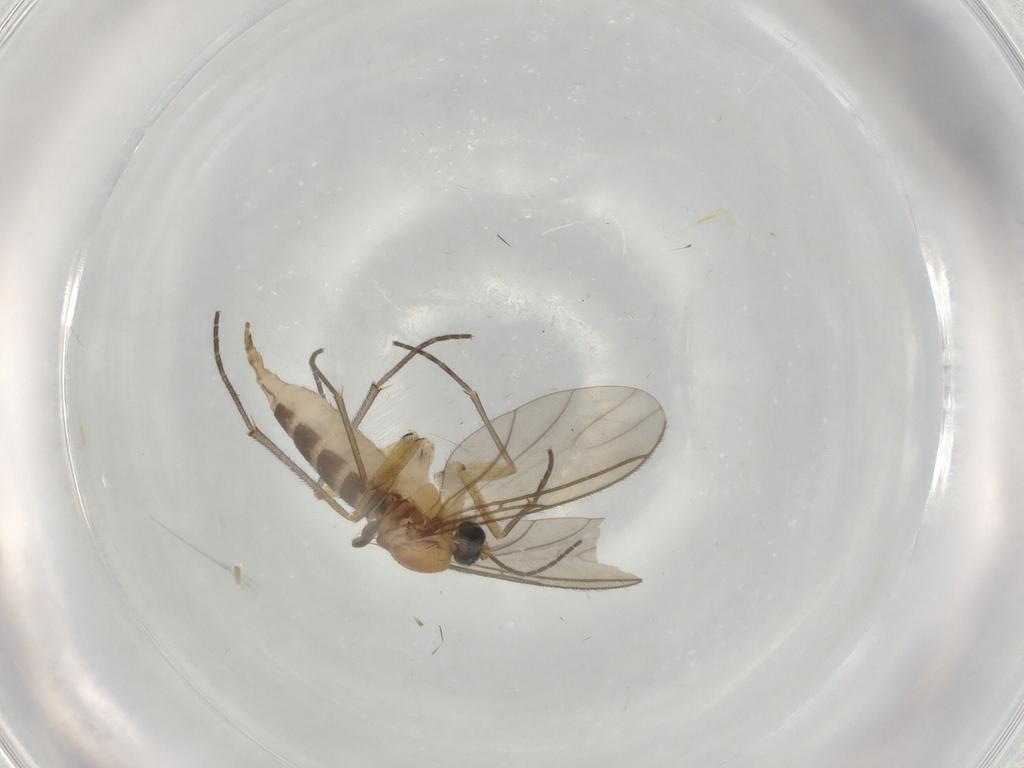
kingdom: Animalia
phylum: Arthropoda
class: Insecta
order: Diptera
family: Sciaridae
